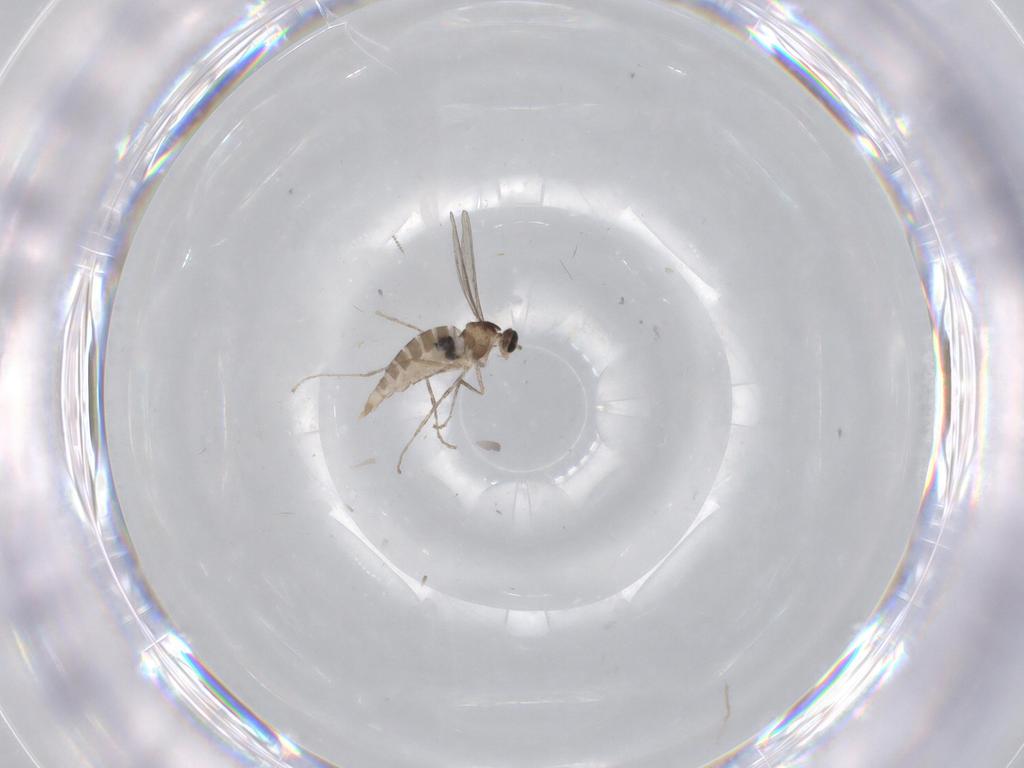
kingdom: Animalia
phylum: Arthropoda
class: Insecta
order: Diptera
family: Cecidomyiidae
